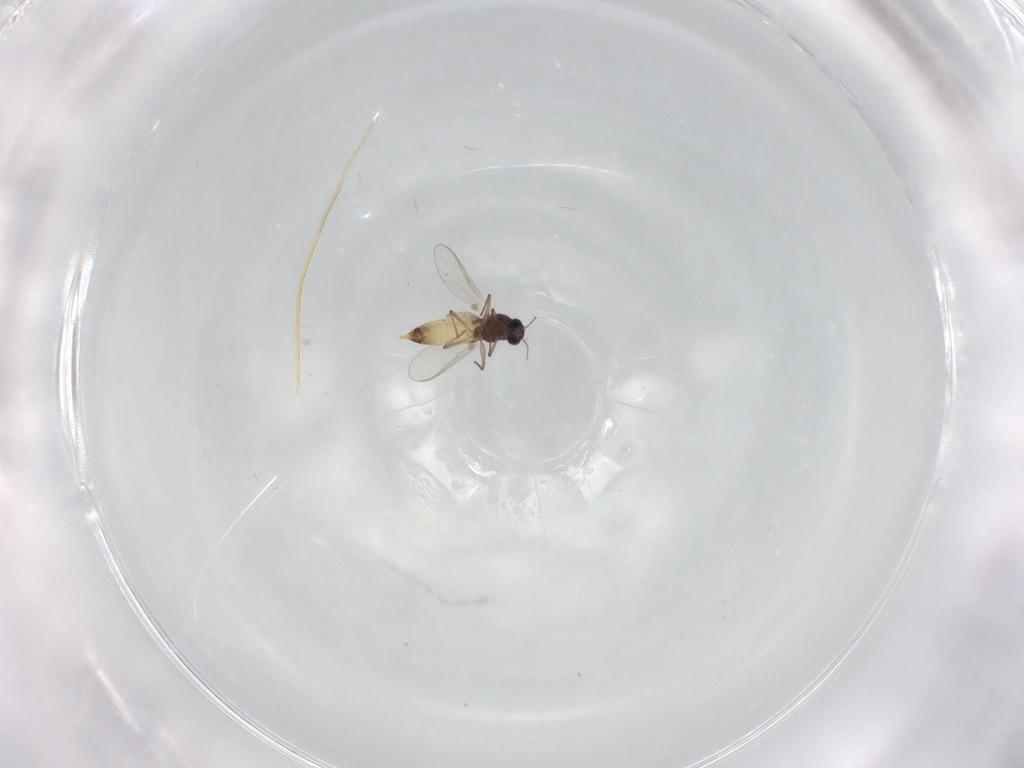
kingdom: Animalia
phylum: Arthropoda
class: Insecta
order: Diptera
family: Chironomidae
